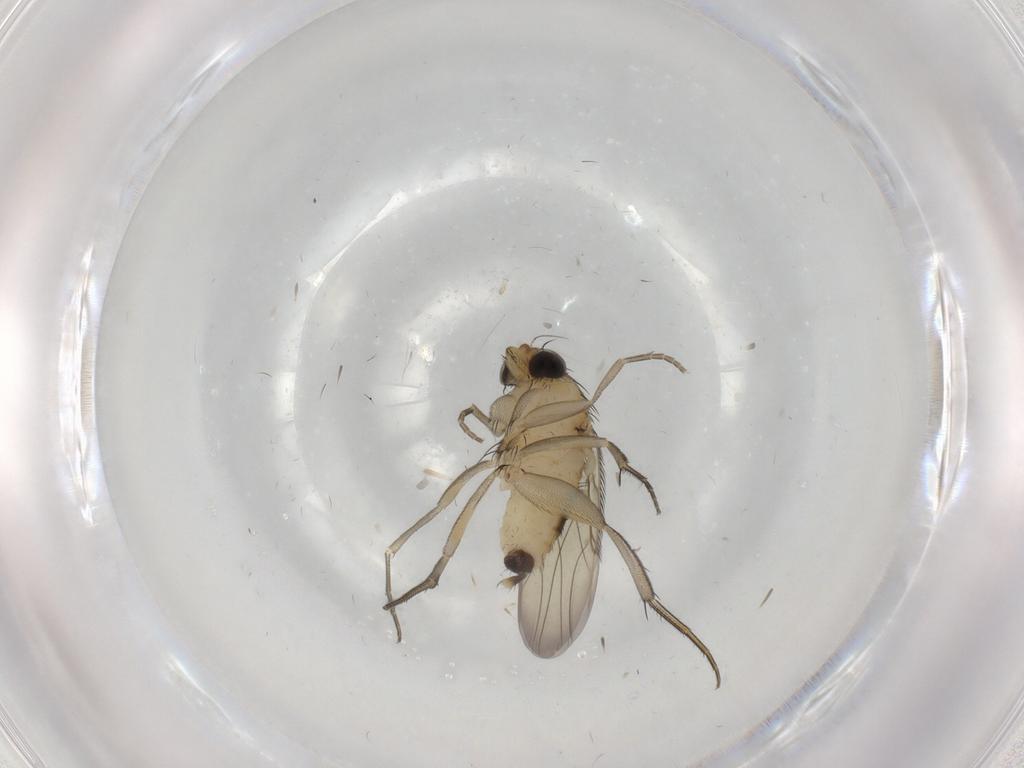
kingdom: Animalia
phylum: Arthropoda
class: Insecta
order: Diptera
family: Phoridae
